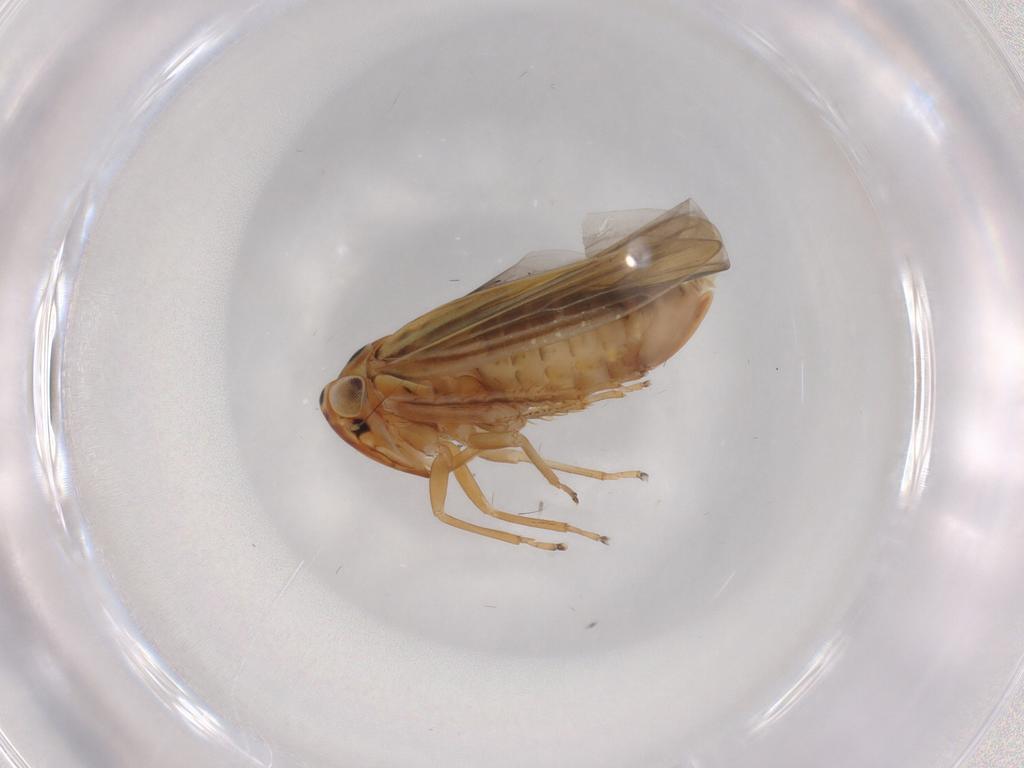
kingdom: Animalia
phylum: Arthropoda
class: Insecta
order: Hemiptera
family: Cicadellidae
